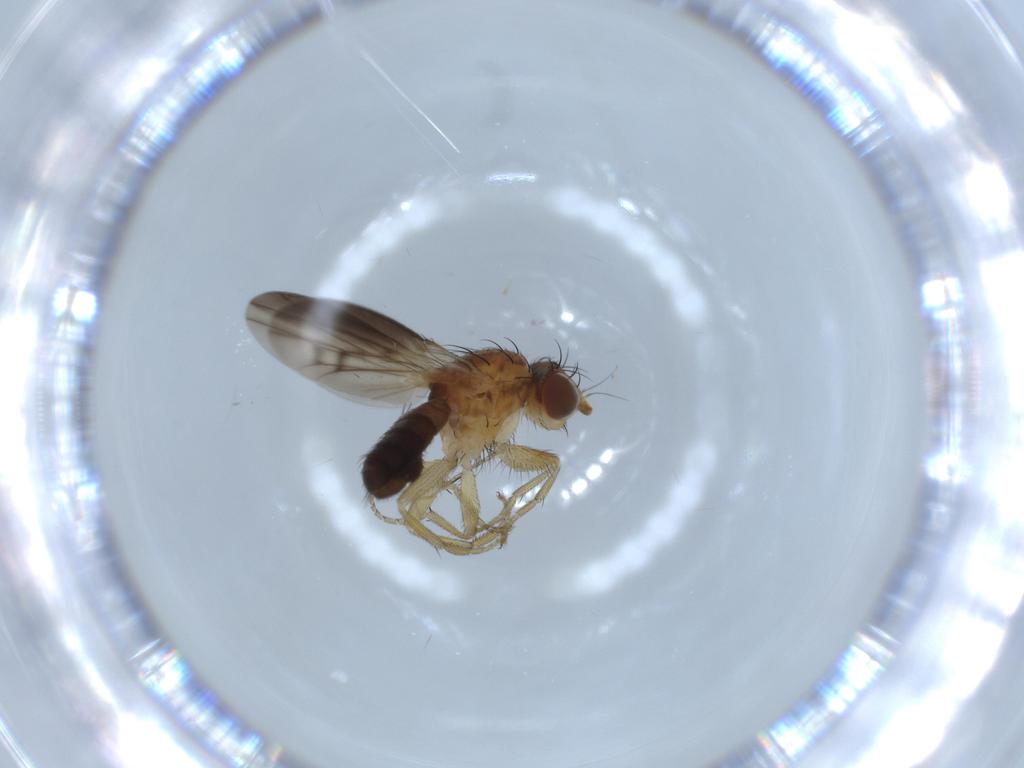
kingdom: Animalia
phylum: Arthropoda
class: Insecta
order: Diptera
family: Heleomyzidae
